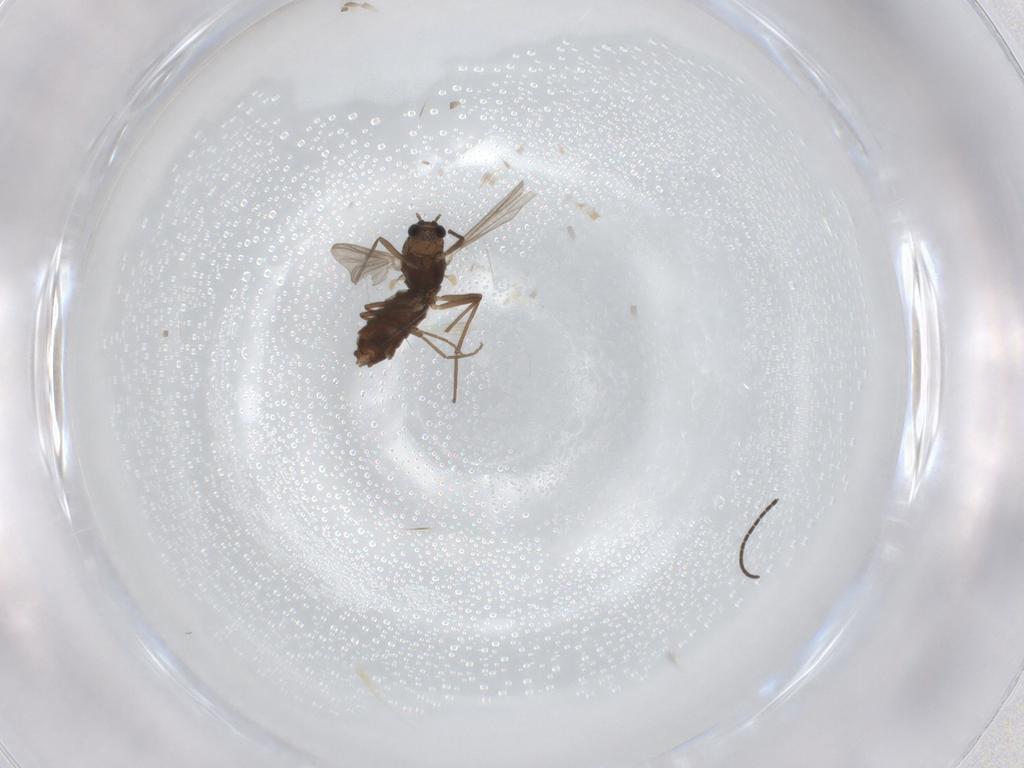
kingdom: Animalia
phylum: Arthropoda
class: Insecta
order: Diptera
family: Chironomidae
